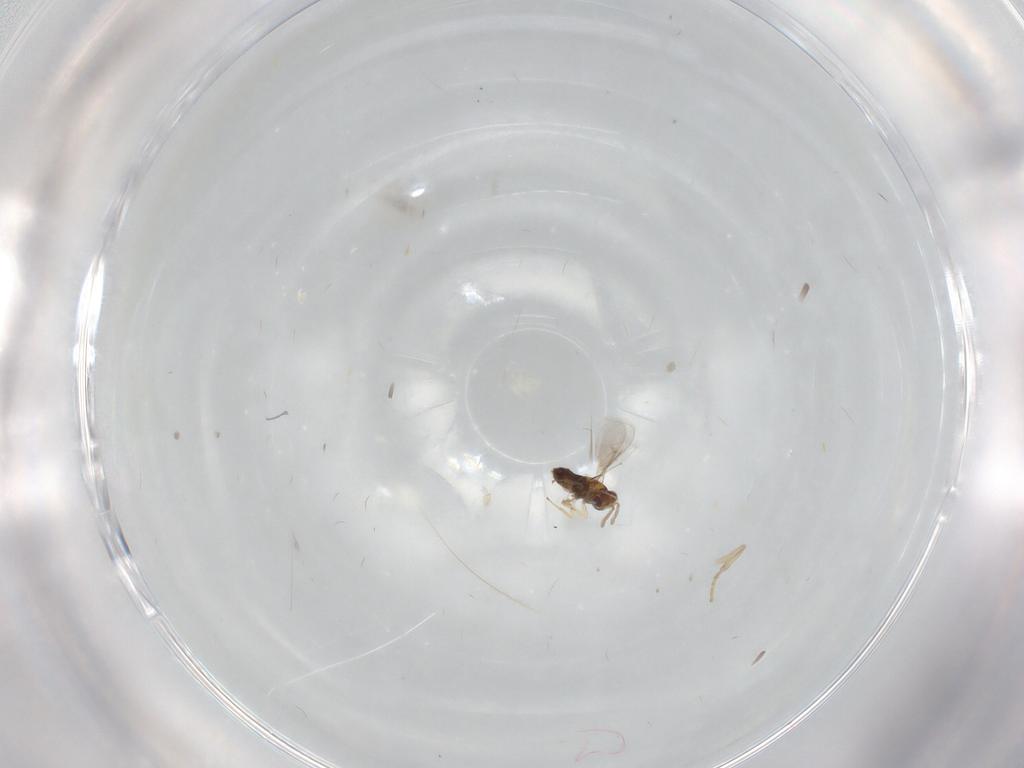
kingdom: Animalia
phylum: Arthropoda
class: Insecta
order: Hymenoptera
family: Aphelinidae
